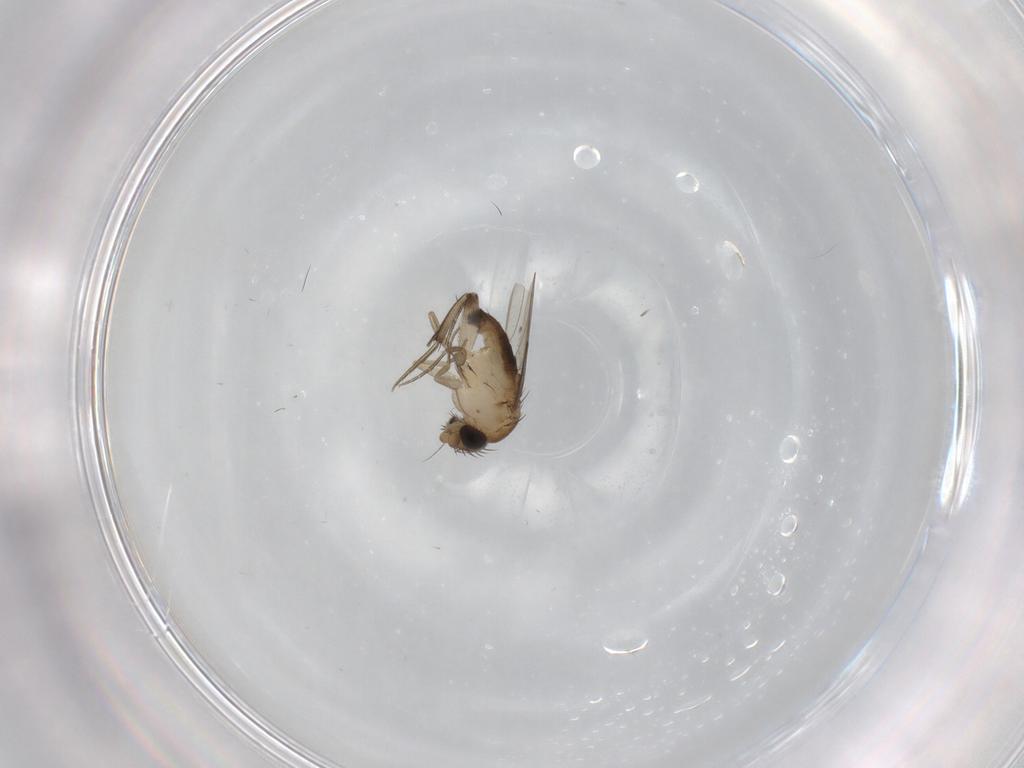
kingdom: Animalia
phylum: Arthropoda
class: Insecta
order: Diptera
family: Phoridae
